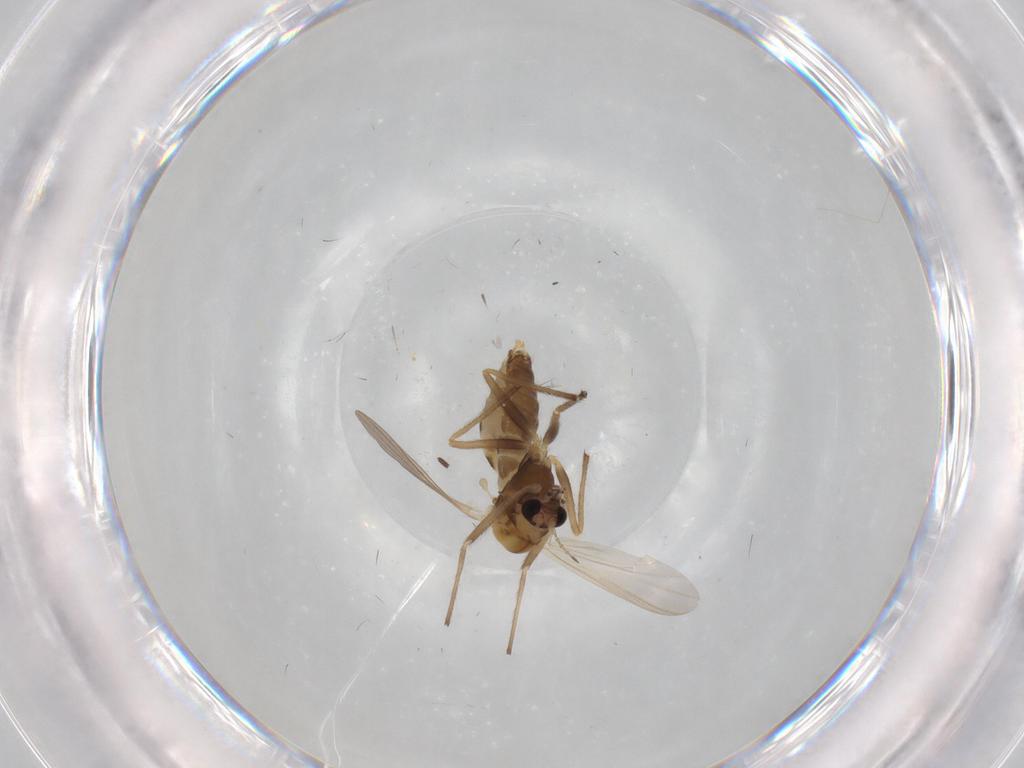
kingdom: Animalia
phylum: Arthropoda
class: Insecta
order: Diptera
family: Chironomidae
